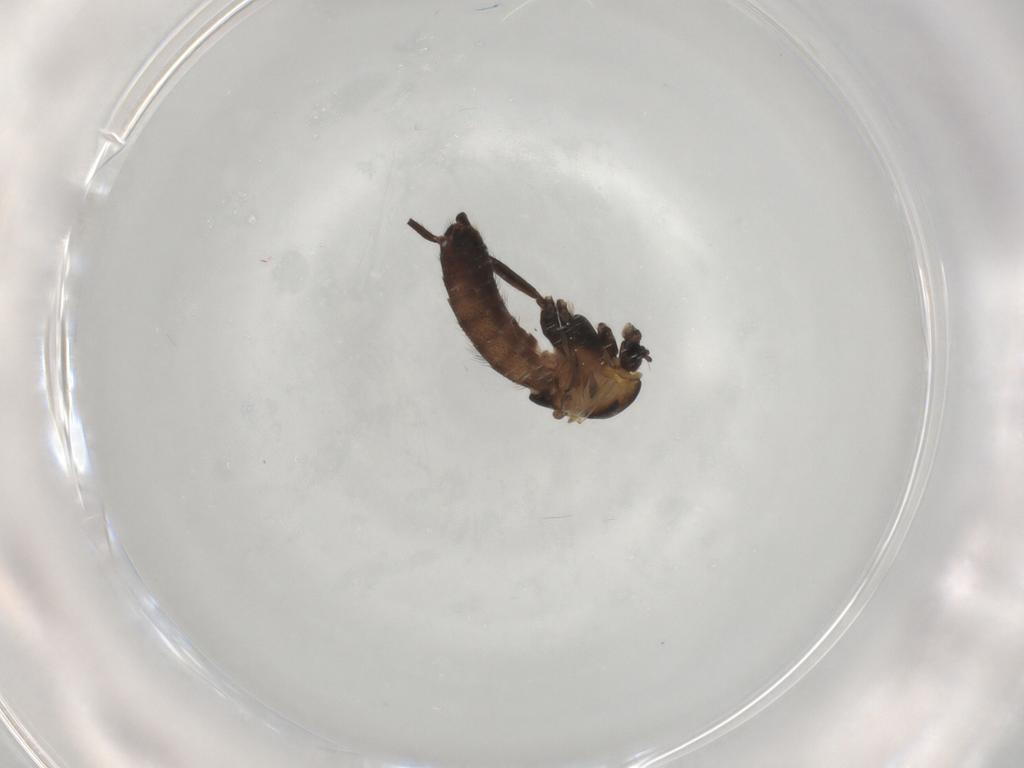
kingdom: Animalia
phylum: Arthropoda
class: Insecta
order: Diptera
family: Chironomidae
